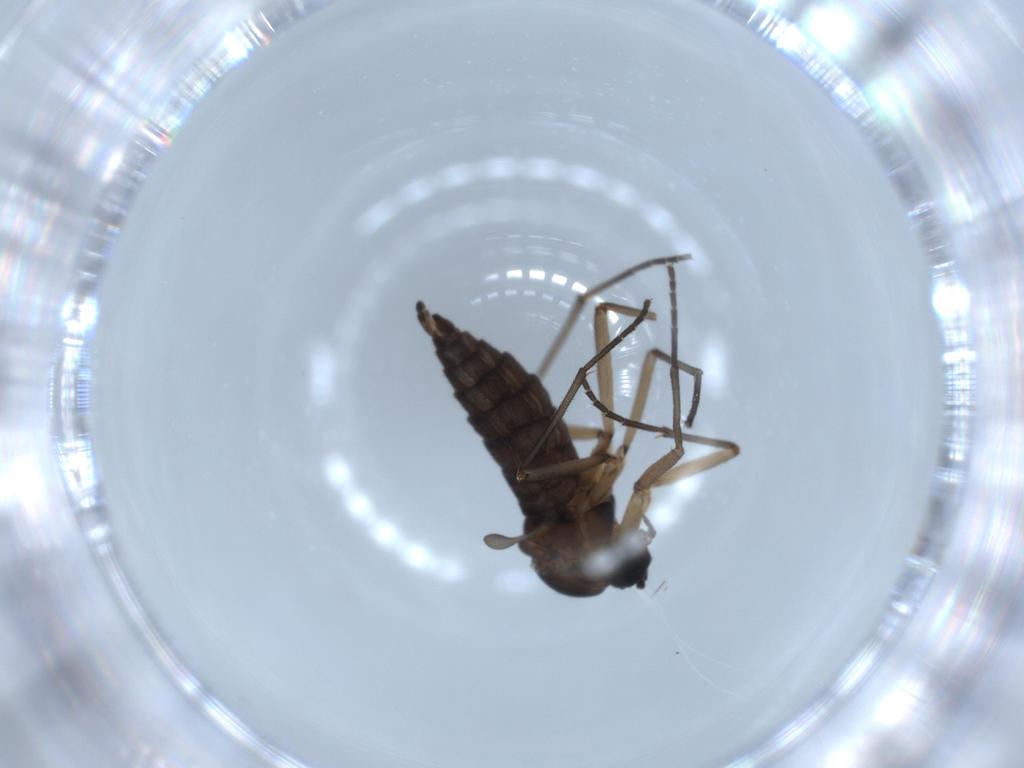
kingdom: Animalia
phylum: Arthropoda
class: Insecta
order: Diptera
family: Sciaridae
